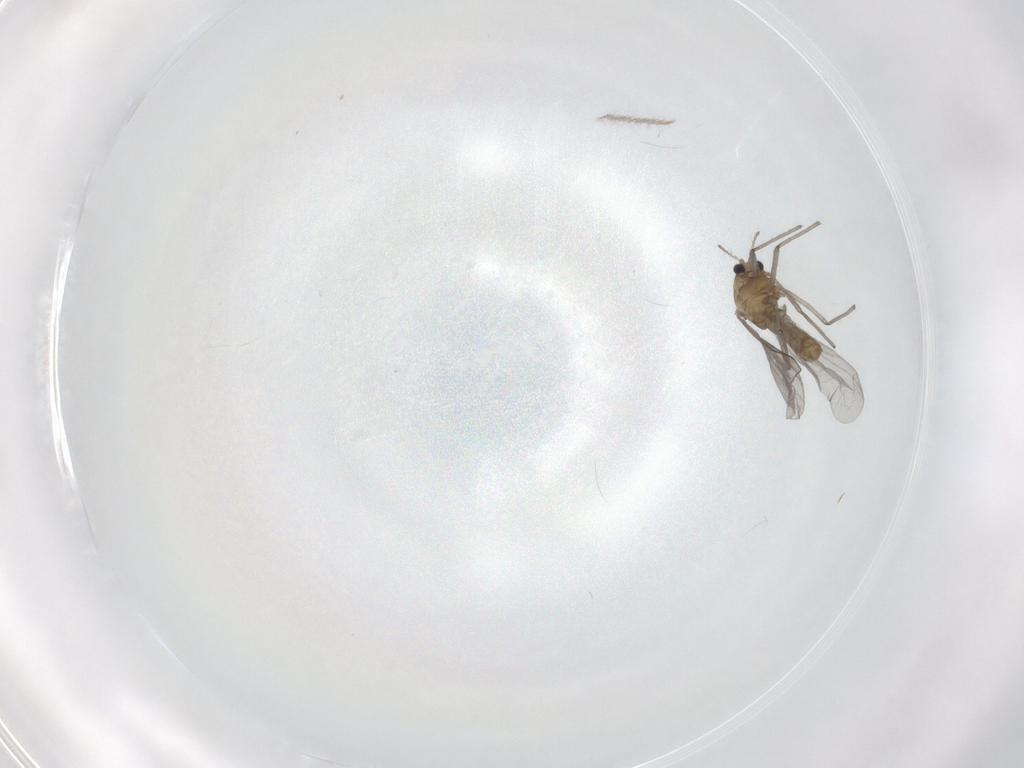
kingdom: Animalia
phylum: Arthropoda
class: Insecta
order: Diptera
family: Chironomidae
